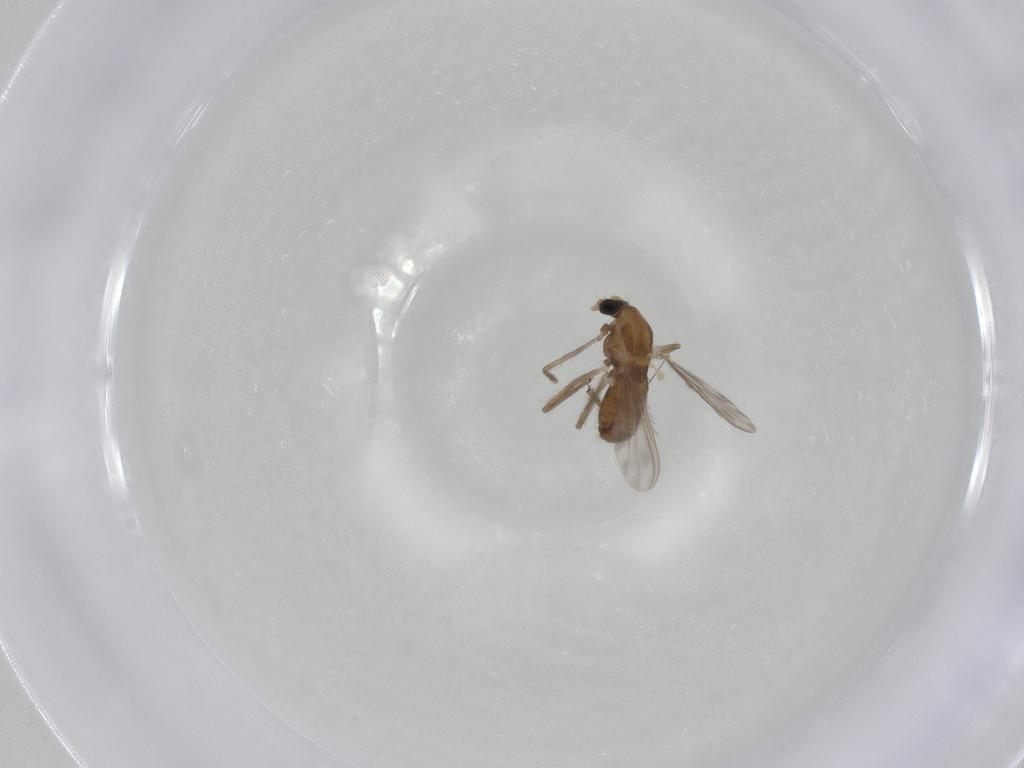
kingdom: Animalia
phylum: Arthropoda
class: Insecta
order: Diptera
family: Chironomidae
